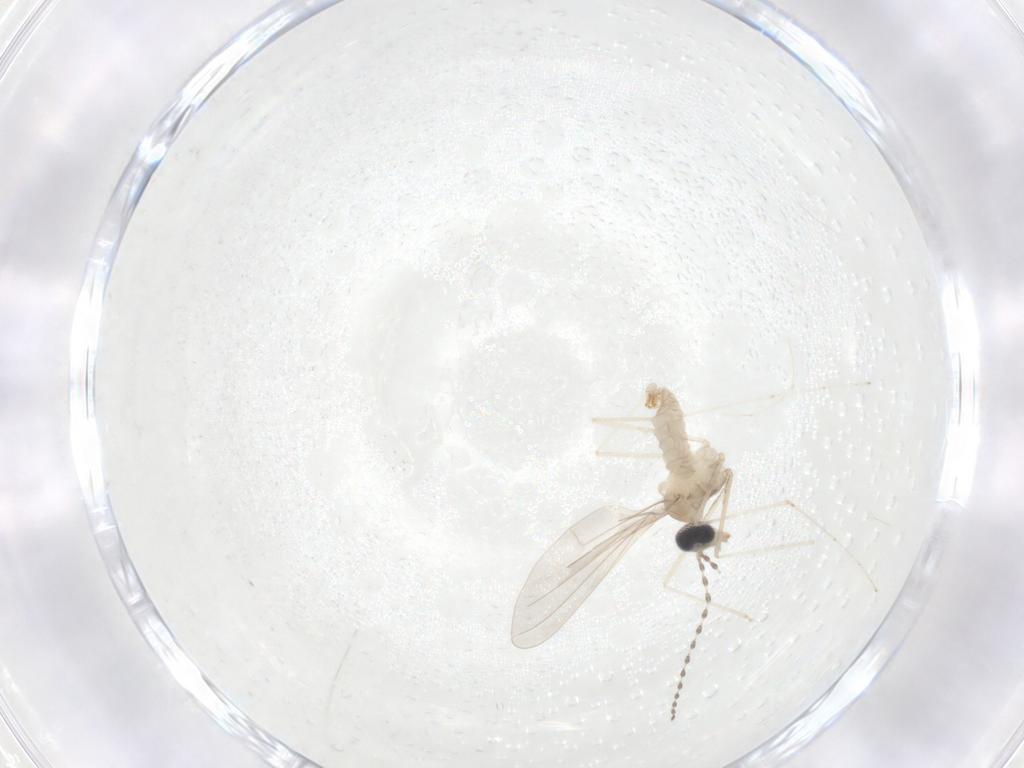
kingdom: Animalia
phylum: Arthropoda
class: Insecta
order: Diptera
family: Cecidomyiidae
